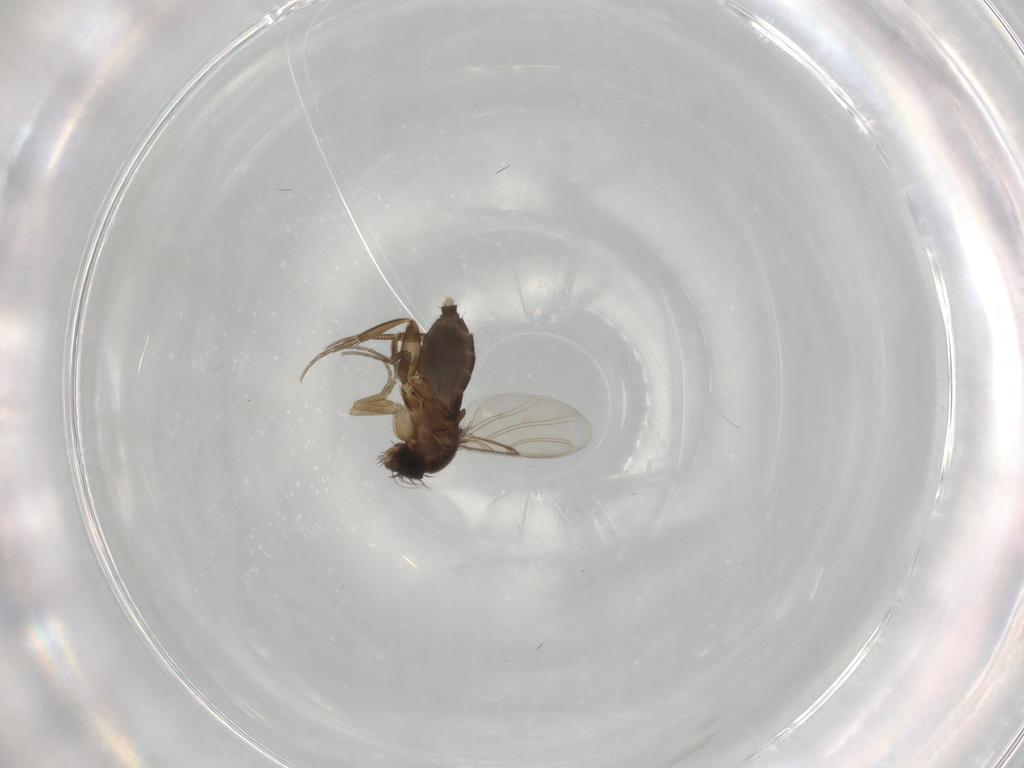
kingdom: Animalia
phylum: Arthropoda
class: Insecta
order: Diptera
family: Phoridae
